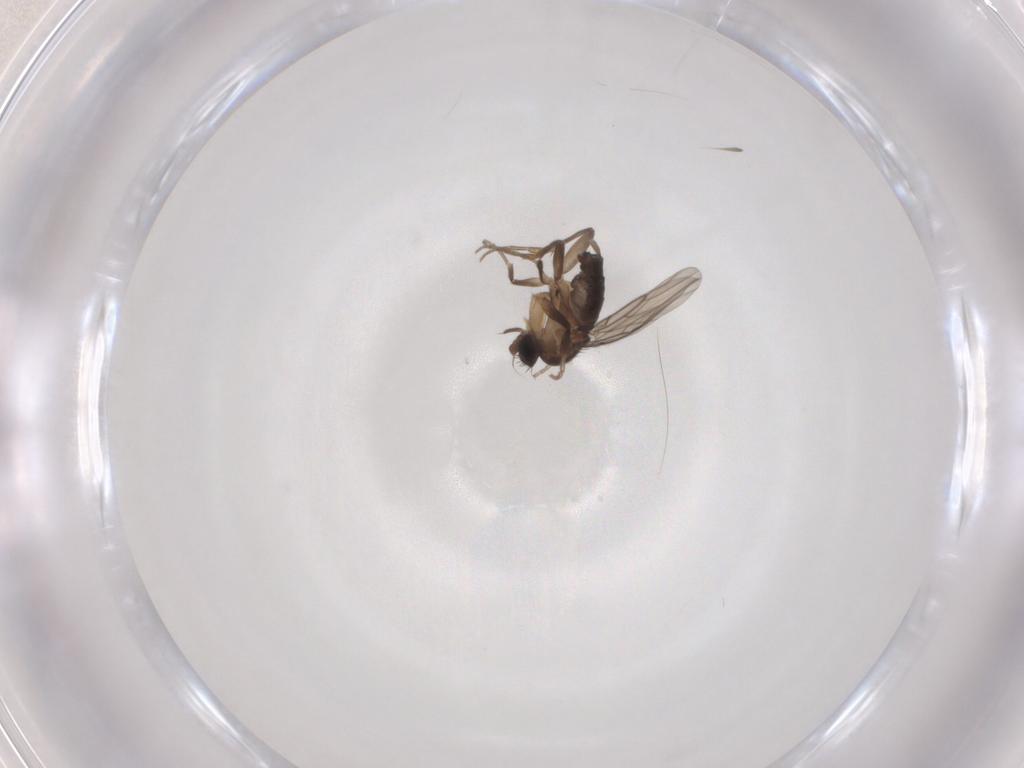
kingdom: Animalia
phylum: Arthropoda
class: Insecta
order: Diptera
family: Phoridae
